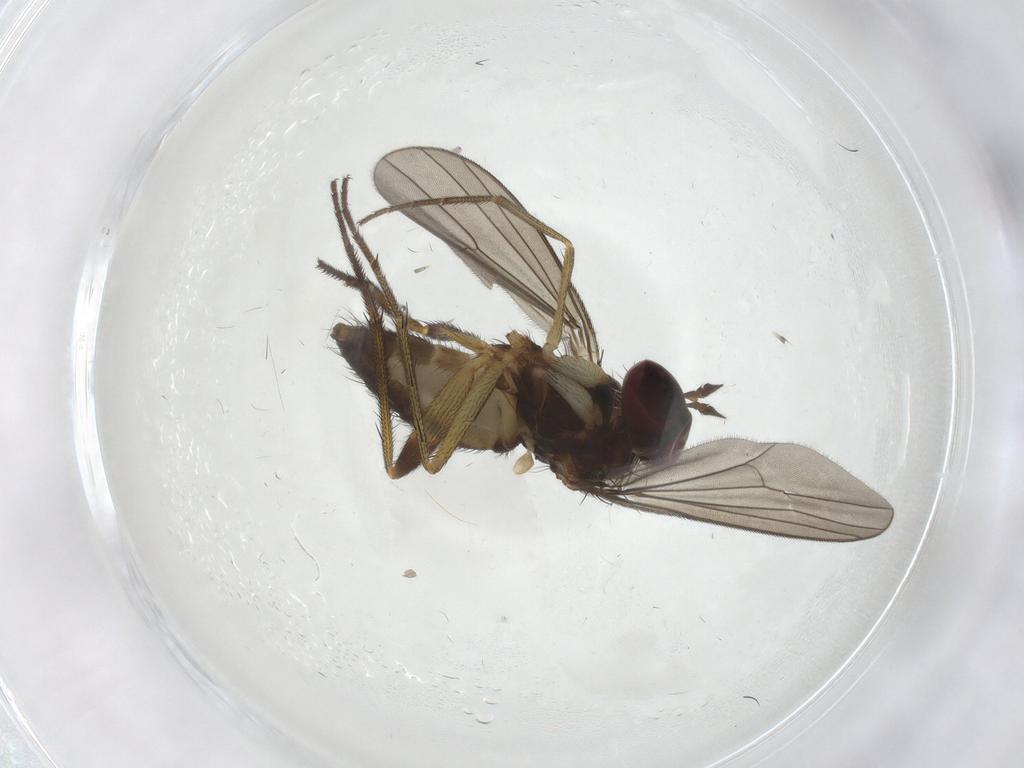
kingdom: Animalia
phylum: Arthropoda
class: Insecta
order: Diptera
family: Dolichopodidae
